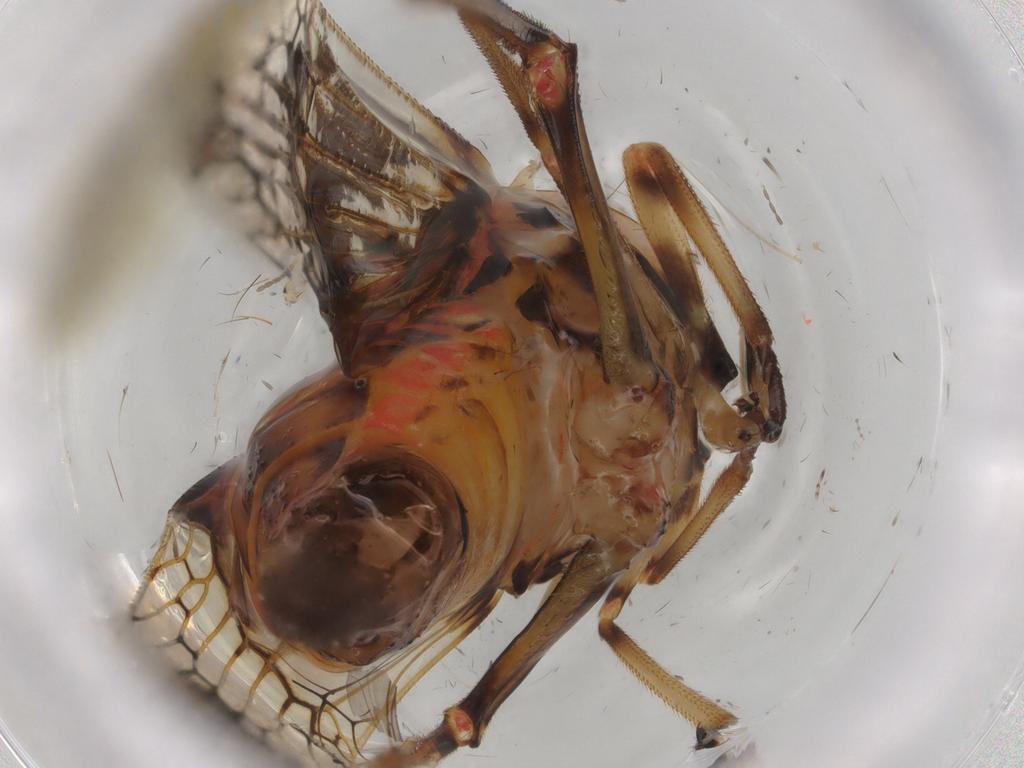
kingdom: Animalia
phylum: Arthropoda
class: Insecta
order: Hemiptera
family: Tropiduchidae
